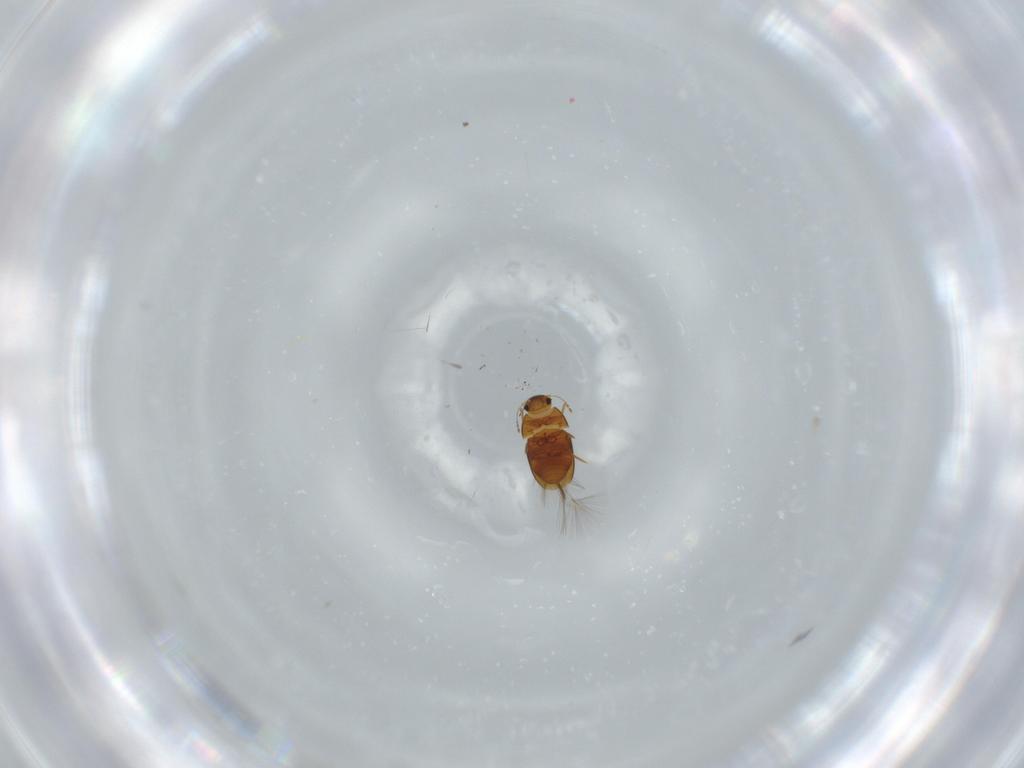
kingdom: Animalia
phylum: Arthropoda
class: Insecta
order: Coleoptera
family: Ptiliidae
